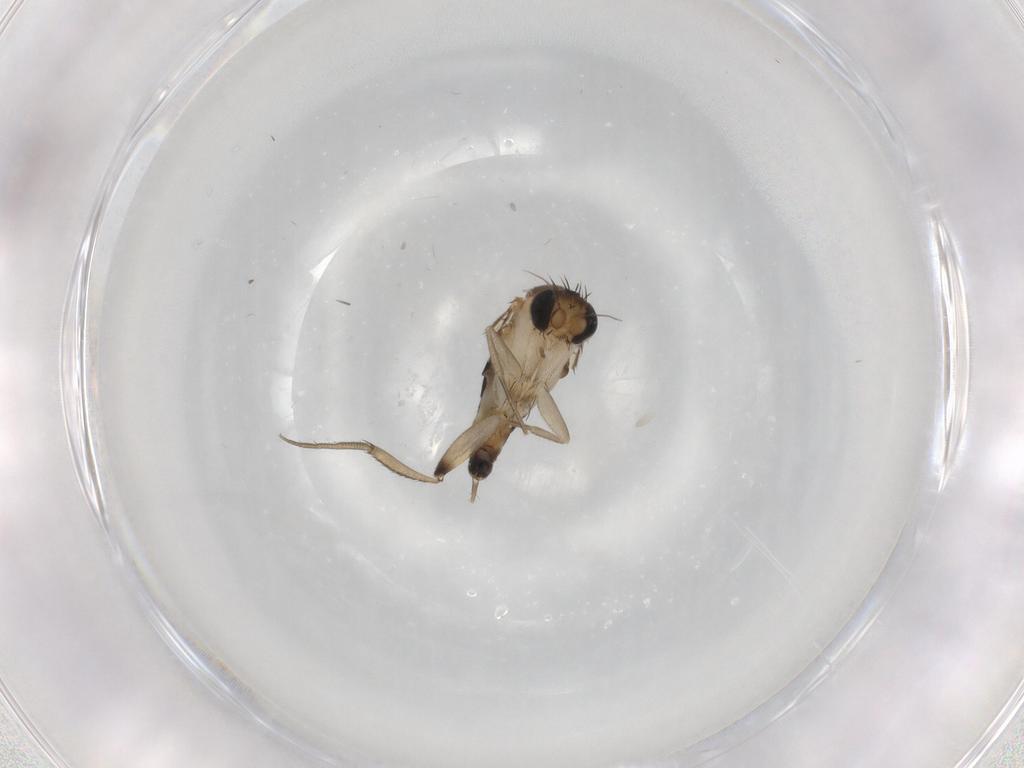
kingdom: Animalia
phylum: Arthropoda
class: Insecta
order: Diptera
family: Phoridae
